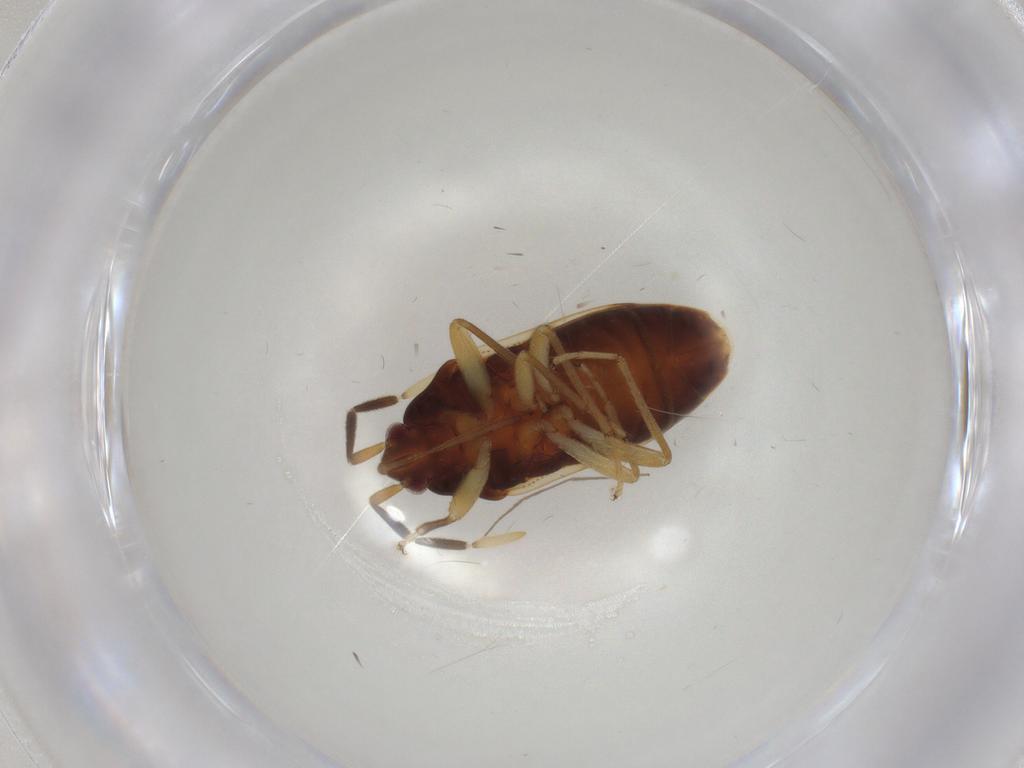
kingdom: Animalia
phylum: Arthropoda
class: Insecta
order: Hemiptera
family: Rhyparochromidae
